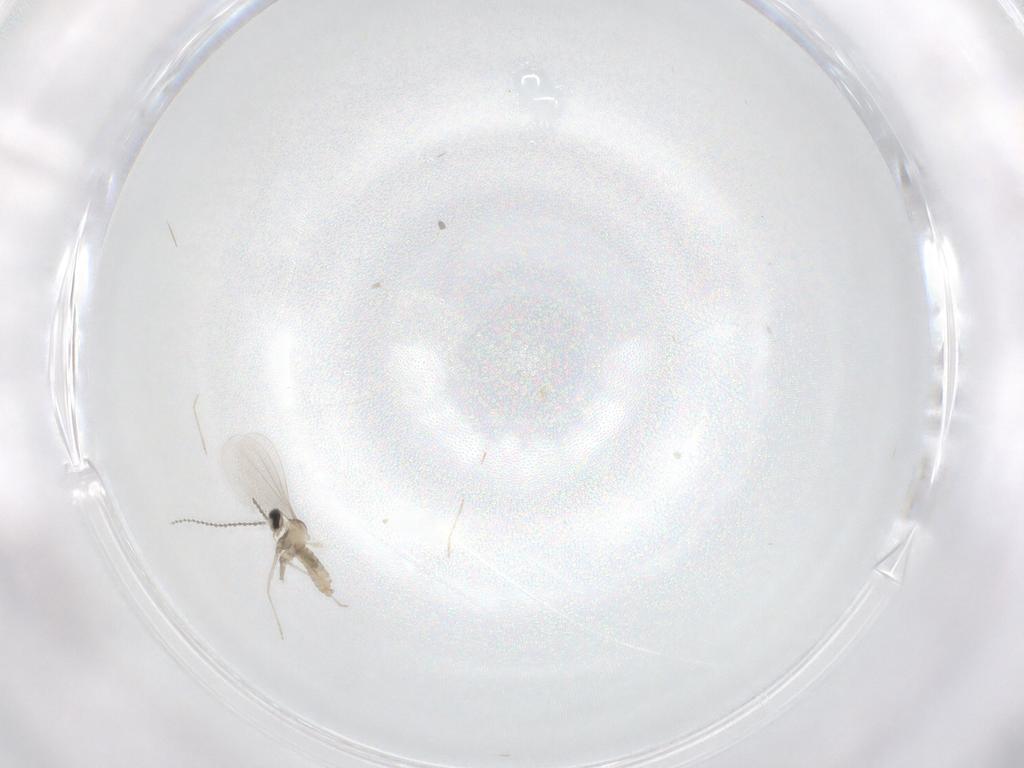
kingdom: Animalia
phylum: Arthropoda
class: Insecta
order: Diptera
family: Cecidomyiidae
